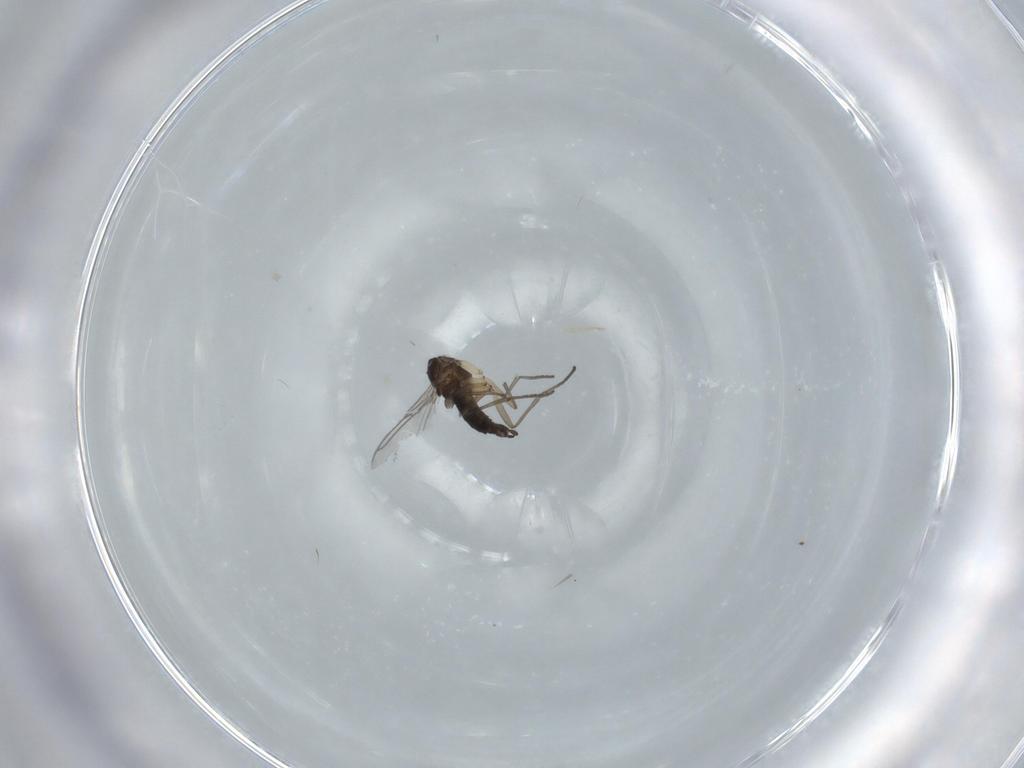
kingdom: Animalia
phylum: Arthropoda
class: Insecta
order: Diptera
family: Sciaridae
